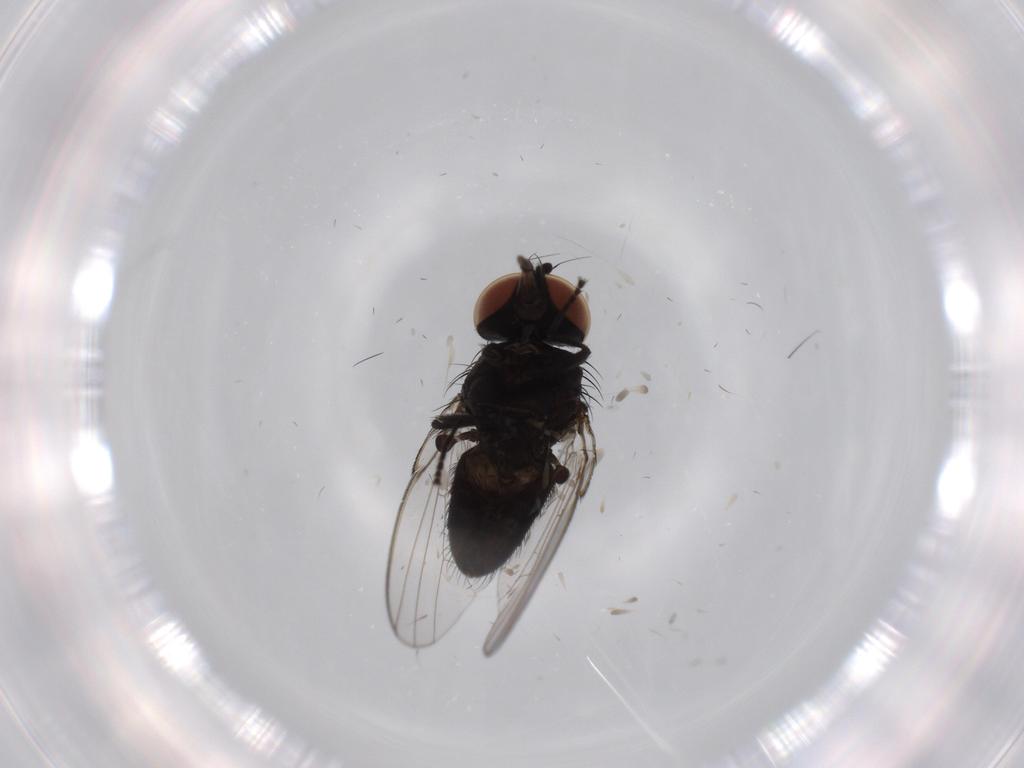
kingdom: Animalia
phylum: Arthropoda
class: Insecta
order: Diptera
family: Milichiidae
